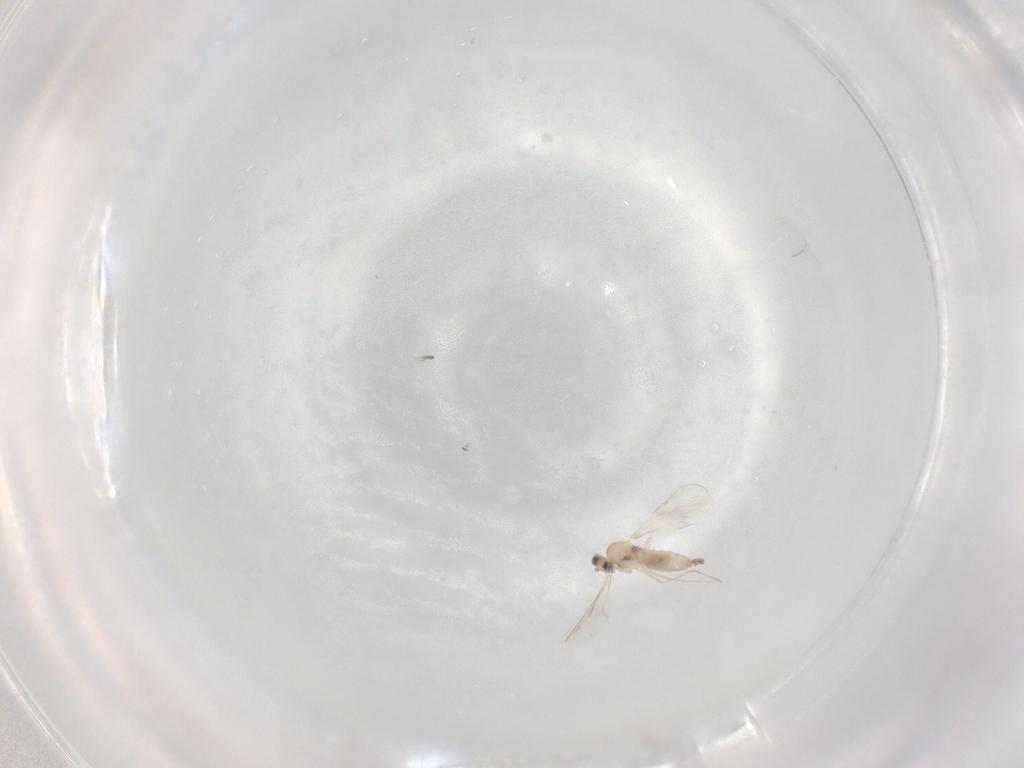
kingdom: Animalia
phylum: Arthropoda
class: Insecta
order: Diptera
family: Cecidomyiidae
